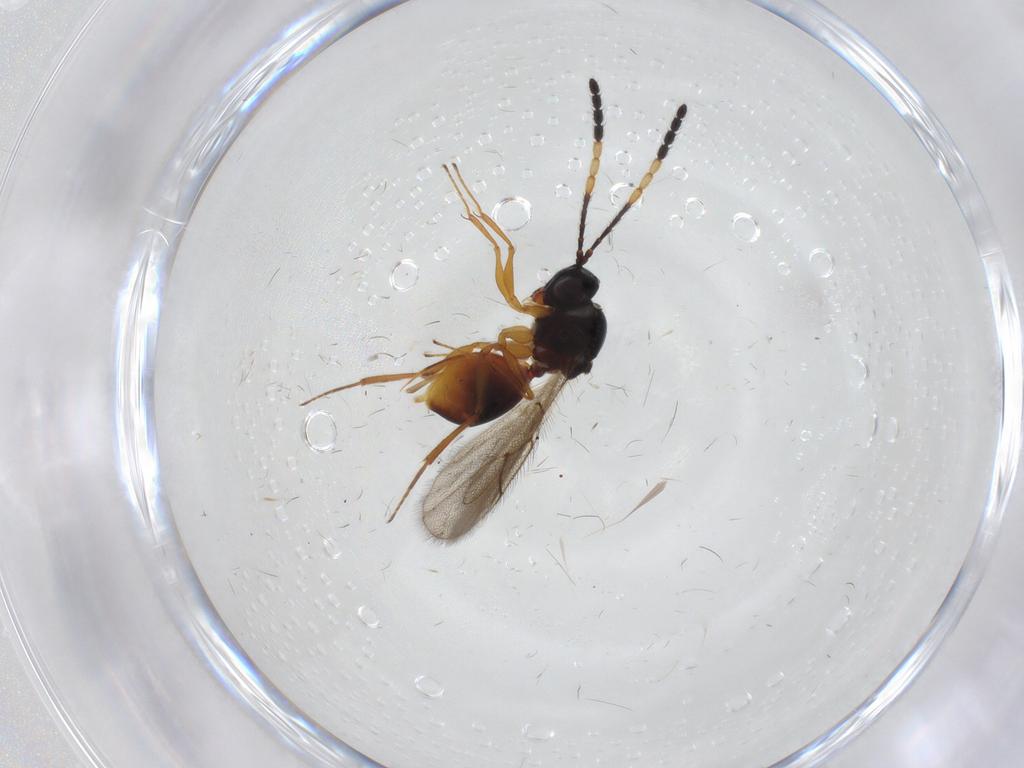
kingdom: Animalia
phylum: Arthropoda
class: Insecta
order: Hymenoptera
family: Figitidae
